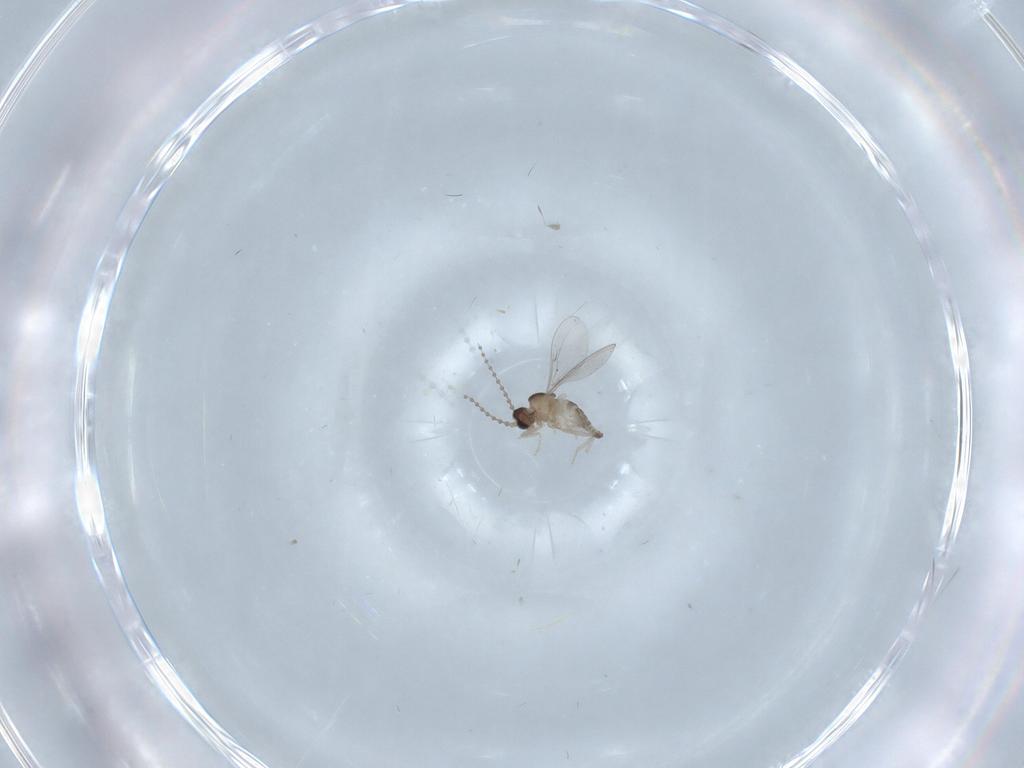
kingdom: Animalia
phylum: Arthropoda
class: Insecta
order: Diptera
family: Cecidomyiidae
